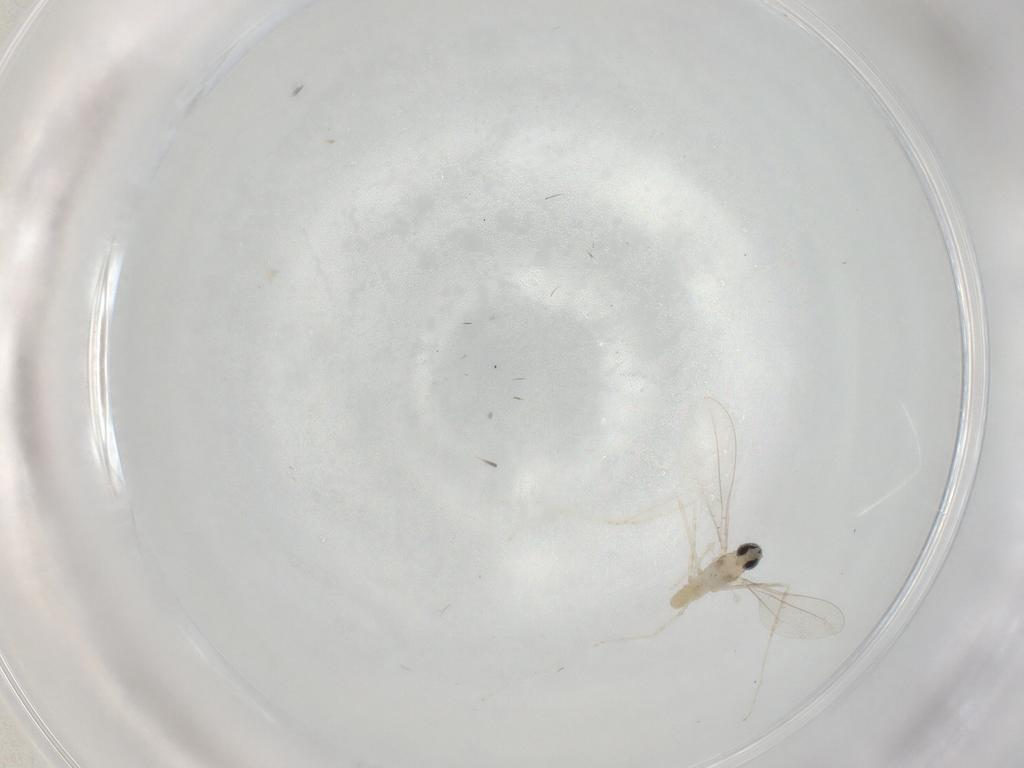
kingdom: Animalia
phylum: Arthropoda
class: Insecta
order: Diptera
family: Cecidomyiidae
